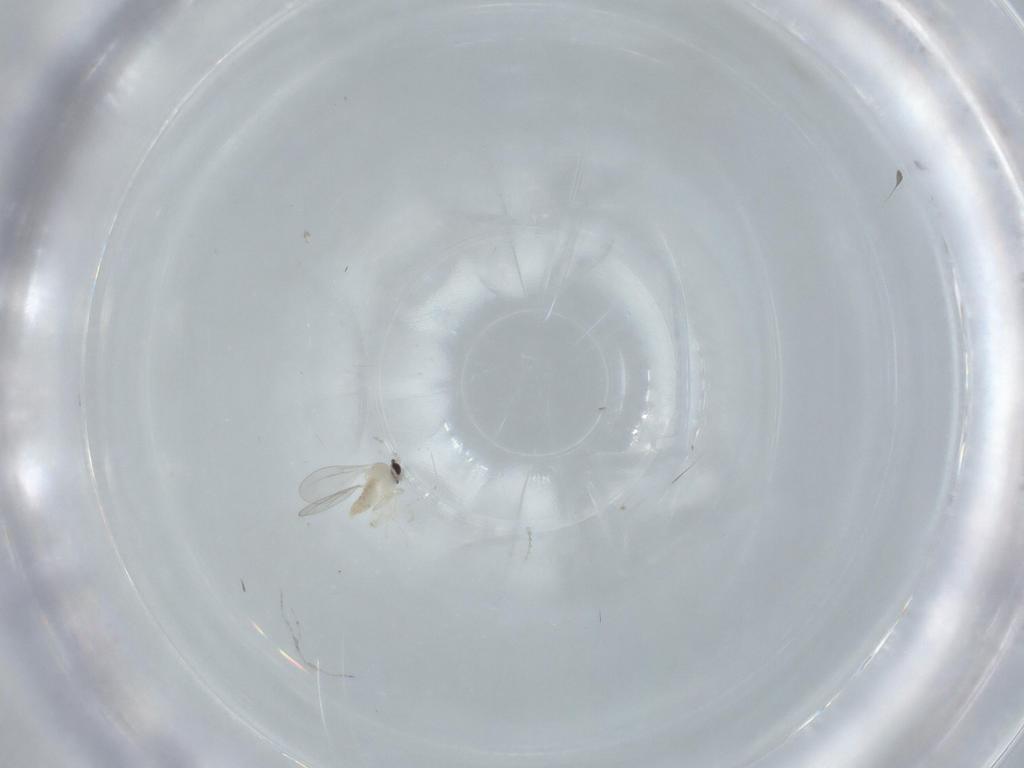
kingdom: Animalia
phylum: Arthropoda
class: Insecta
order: Diptera
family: Cecidomyiidae
